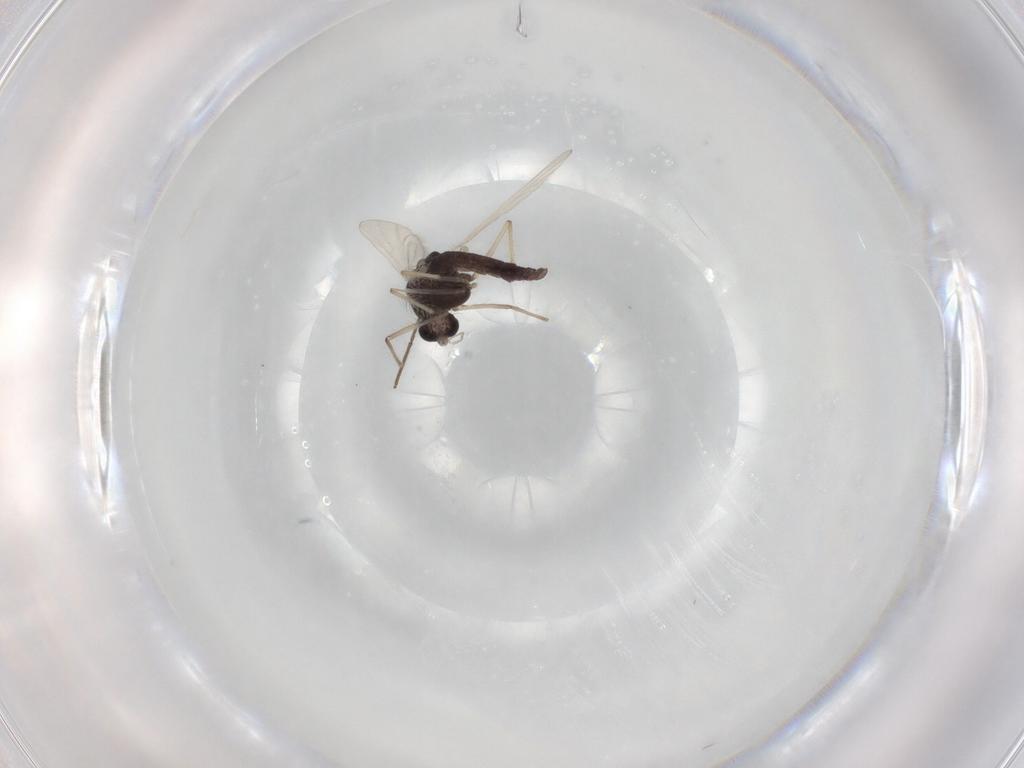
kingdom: Animalia
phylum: Arthropoda
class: Insecta
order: Diptera
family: Chironomidae
